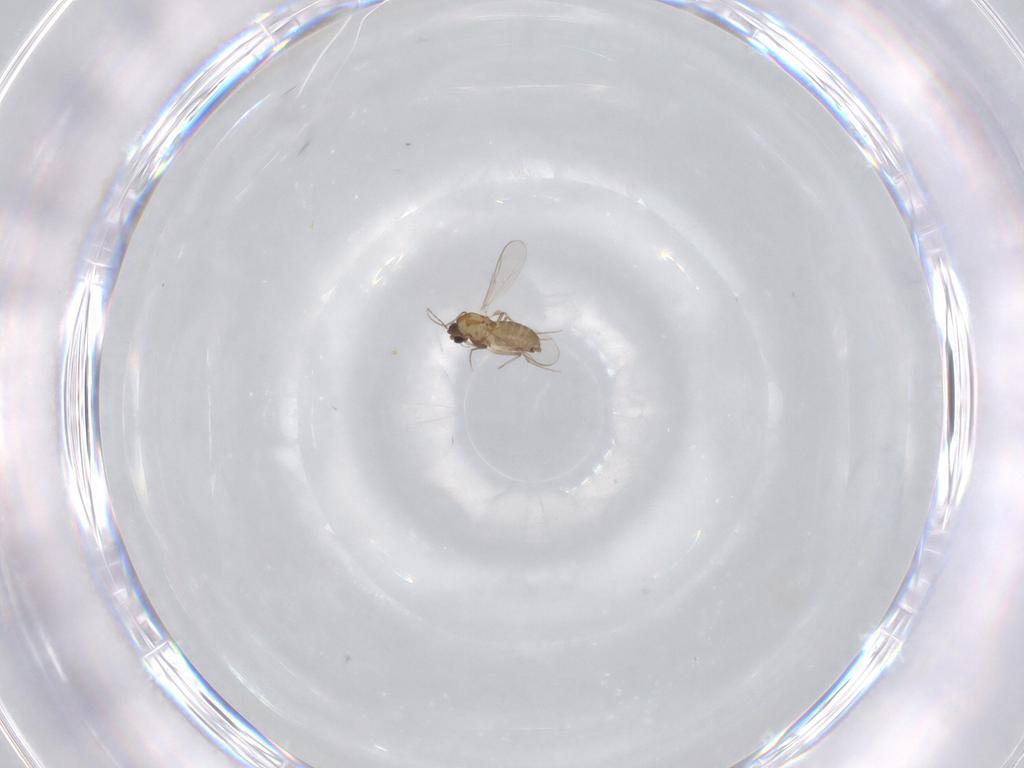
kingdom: Animalia
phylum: Arthropoda
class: Insecta
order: Diptera
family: Chironomidae
